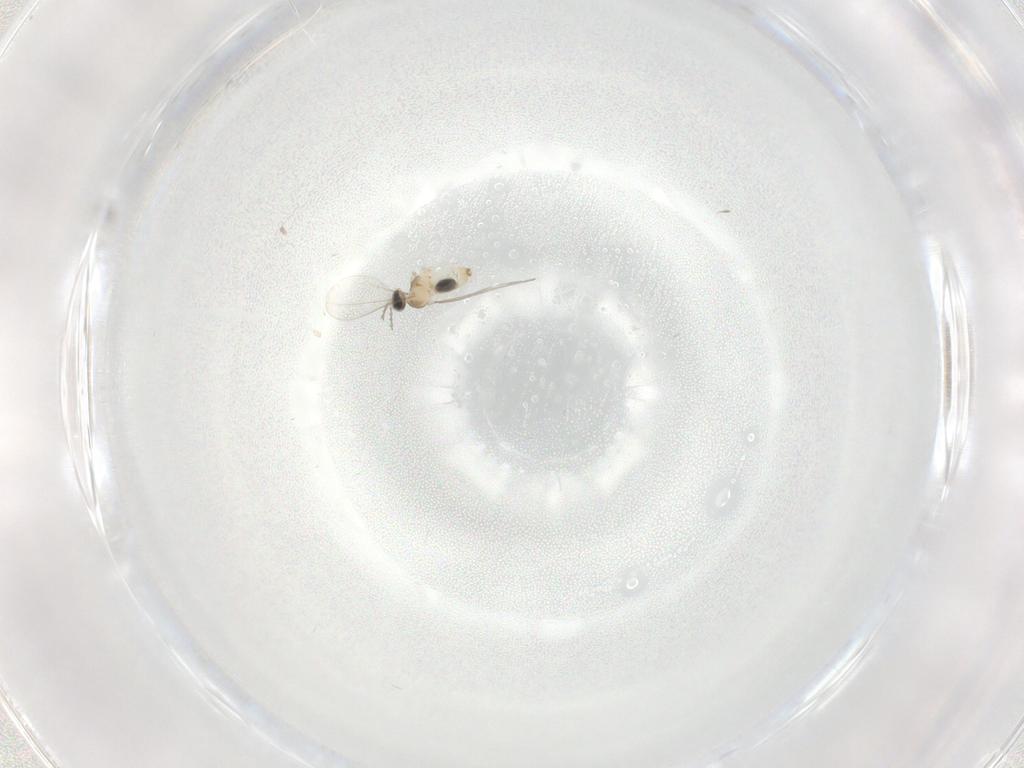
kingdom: Animalia
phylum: Arthropoda
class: Insecta
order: Diptera
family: Cecidomyiidae
